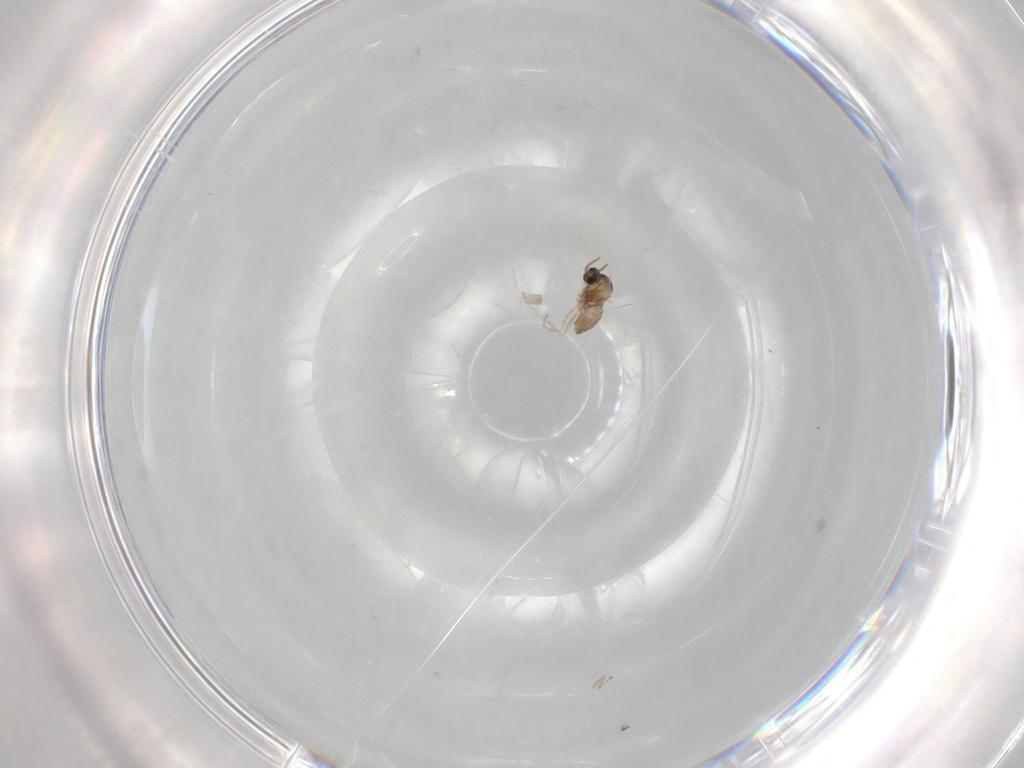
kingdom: Animalia
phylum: Arthropoda
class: Insecta
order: Diptera
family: Cecidomyiidae
